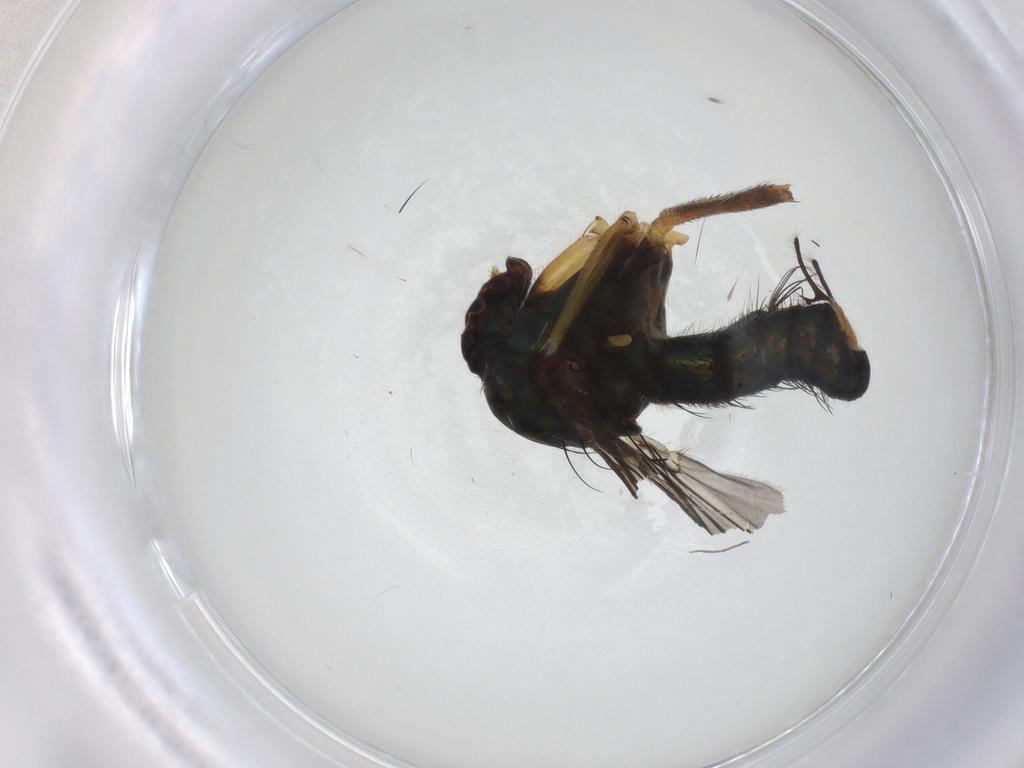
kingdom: Animalia
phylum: Arthropoda
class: Insecta
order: Diptera
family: Dolichopodidae
